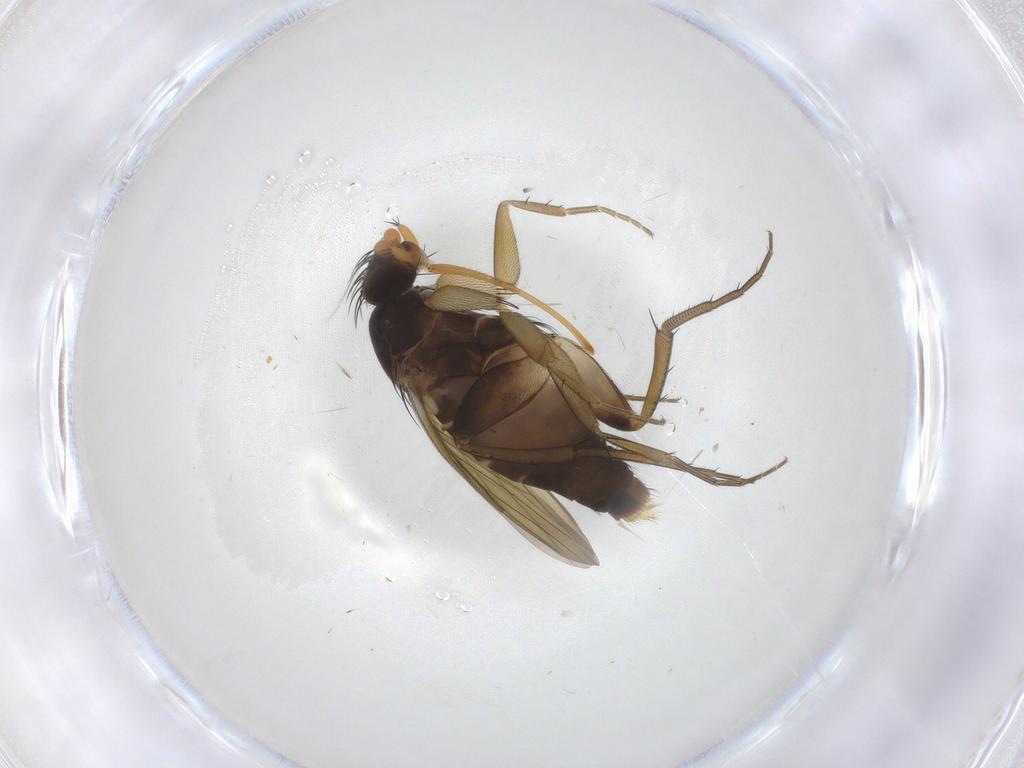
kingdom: Animalia
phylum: Arthropoda
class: Insecta
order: Diptera
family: Phoridae
